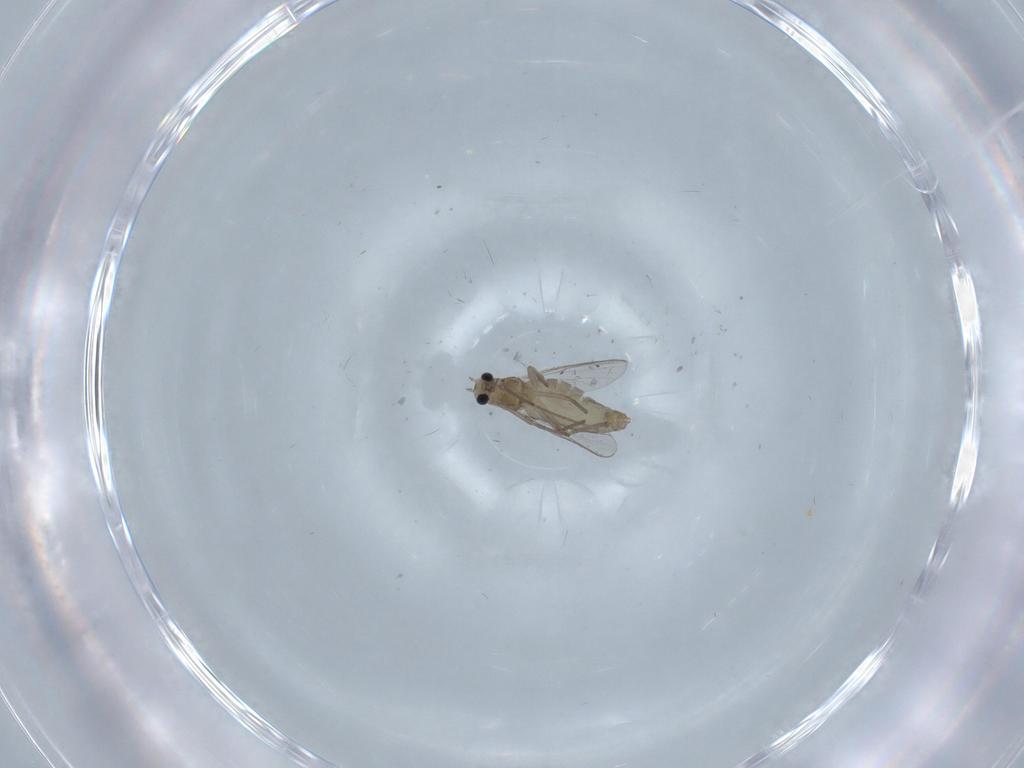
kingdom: Animalia
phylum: Arthropoda
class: Insecta
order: Diptera
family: Chironomidae
